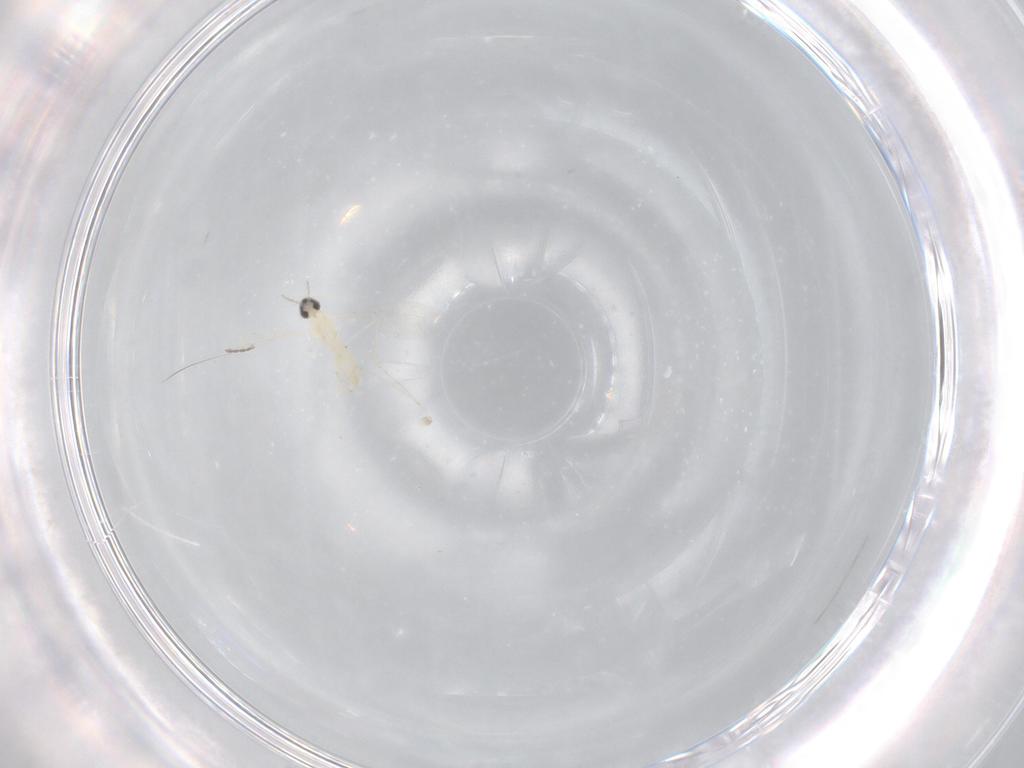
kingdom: Animalia
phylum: Arthropoda
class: Insecta
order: Diptera
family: Cecidomyiidae
